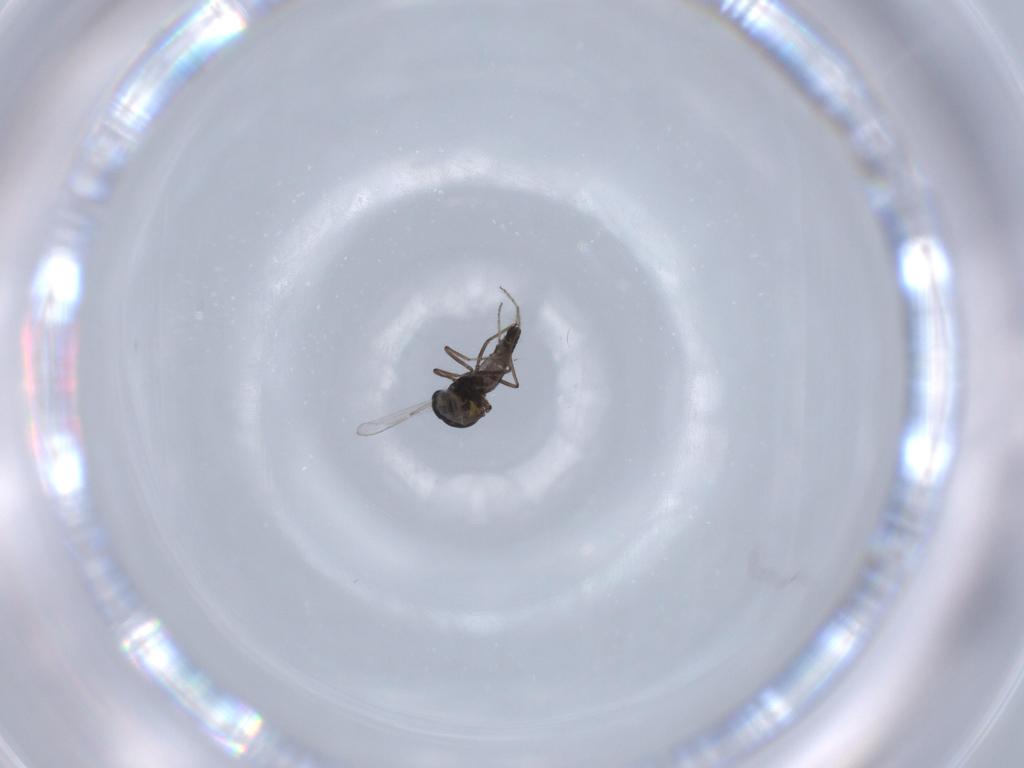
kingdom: Animalia
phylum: Arthropoda
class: Insecta
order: Diptera
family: Ceratopogonidae
